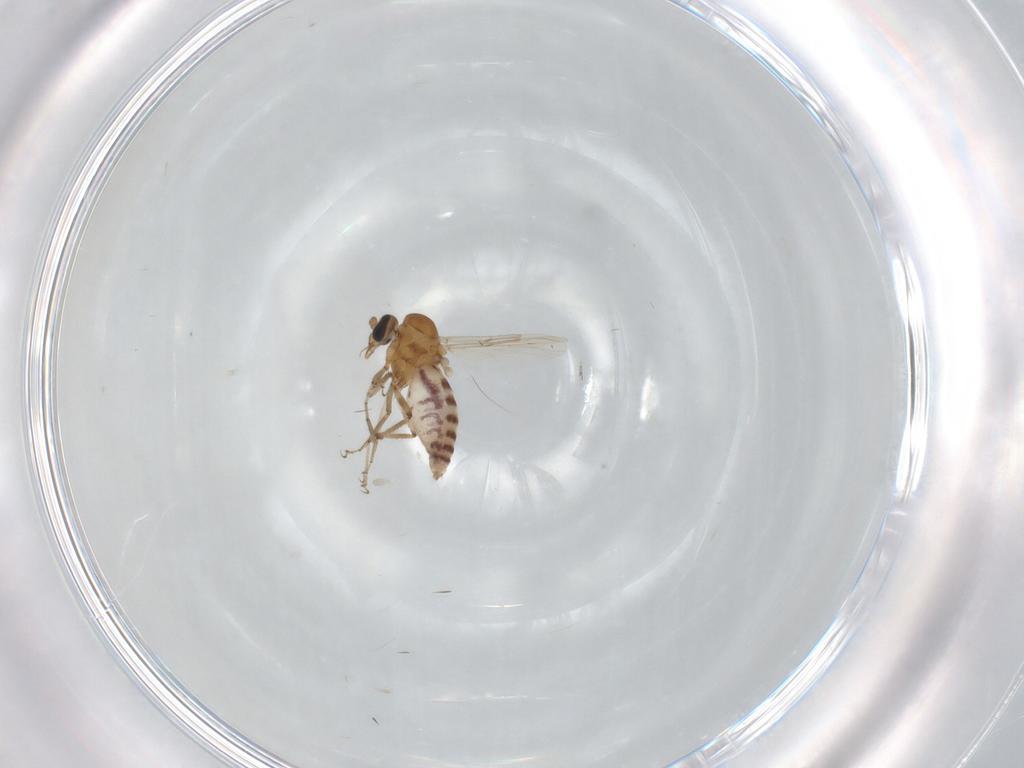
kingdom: Animalia
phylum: Arthropoda
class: Insecta
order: Diptera
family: Ceratopogonidae
